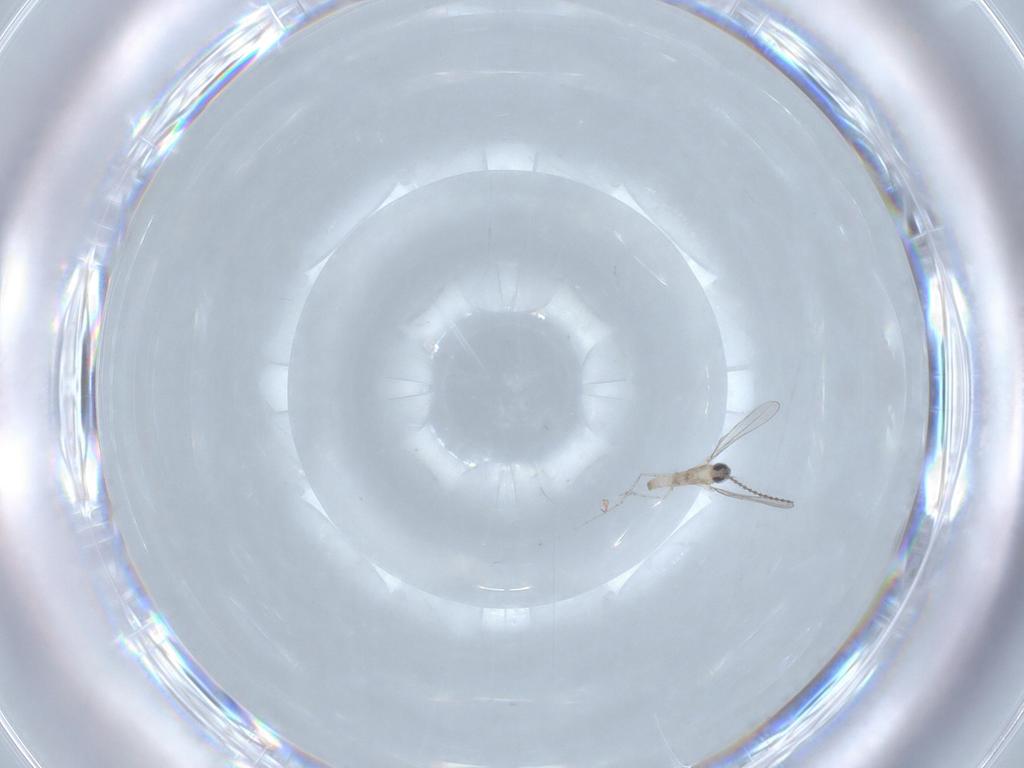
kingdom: Animalia
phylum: Arthropoda
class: Insecta
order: Diptera
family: Cecidomyiidae
